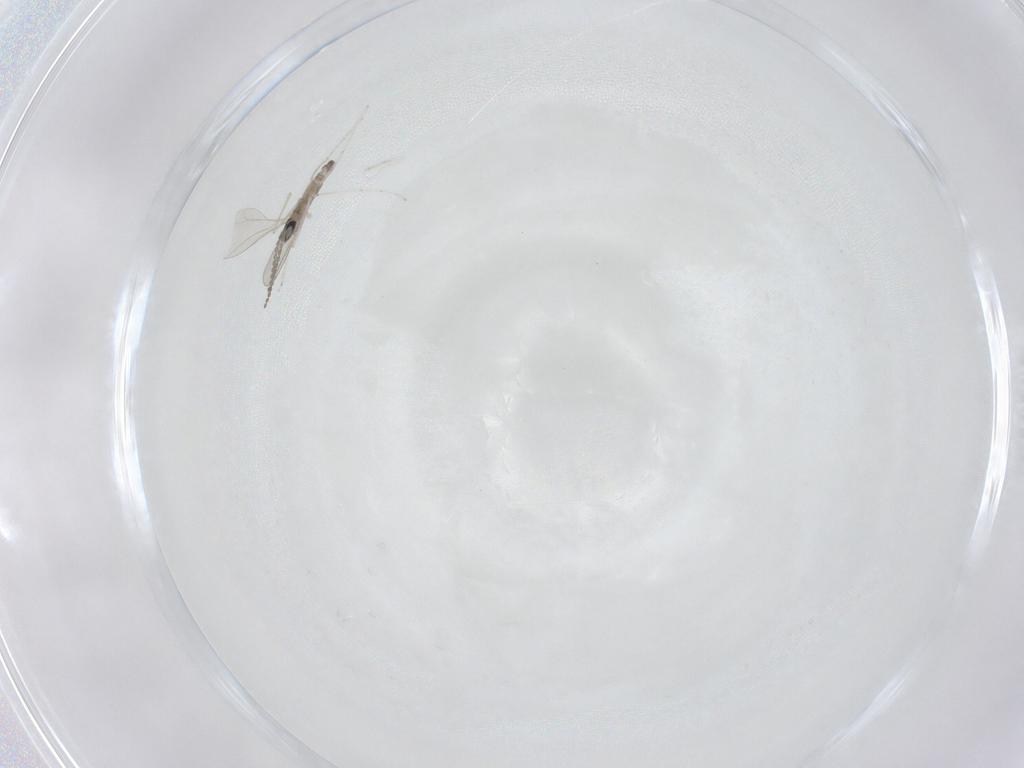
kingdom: Animalia
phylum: Arthropoda
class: Insecta
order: Diptera
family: Cecidomyiidae
